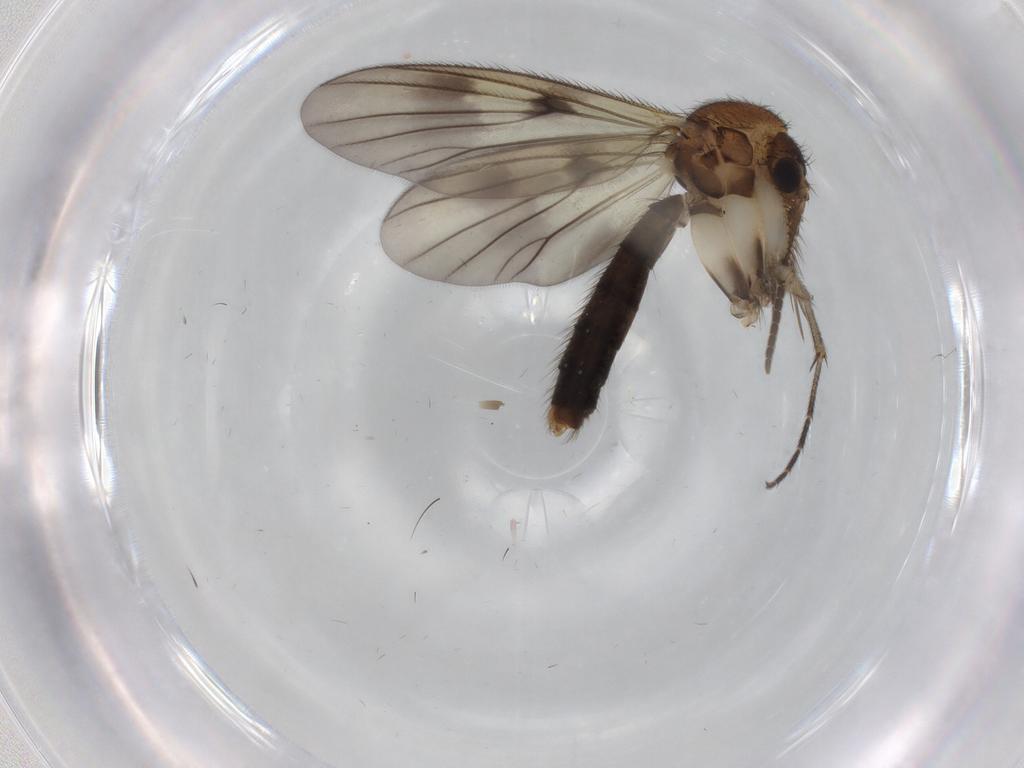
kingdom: Animalia
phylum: Arthropoda
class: Insecta
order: Diptera
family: Mycetophilidae
